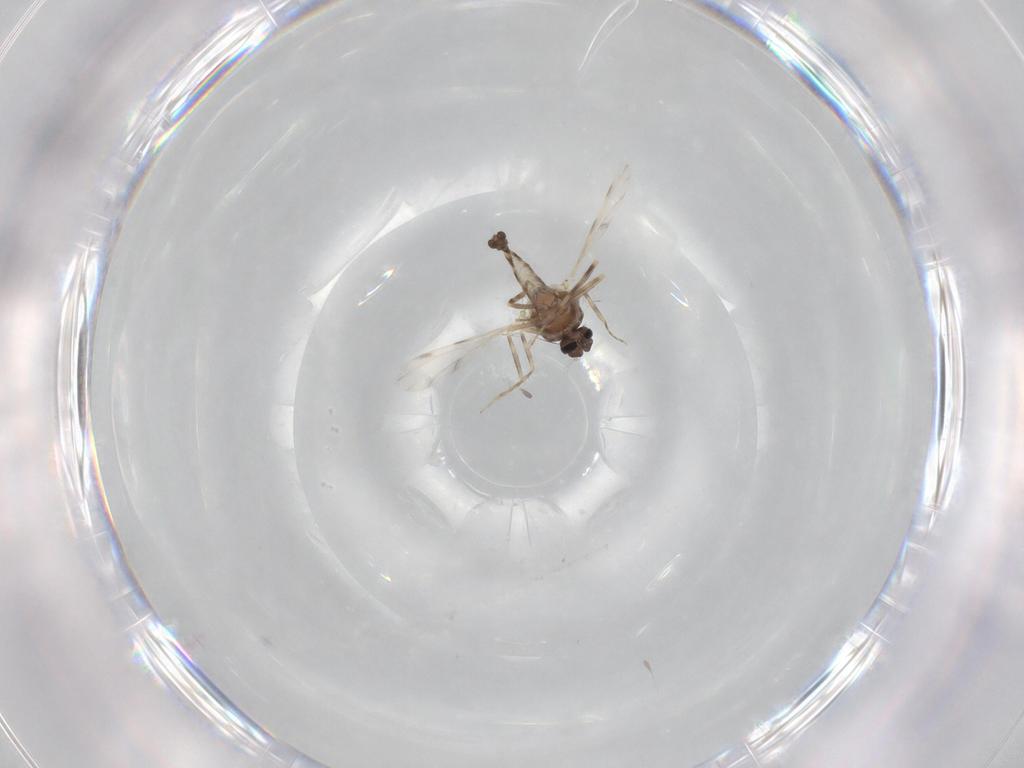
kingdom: Animalia
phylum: Arthropoda
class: Insecta
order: Diptera
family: Ceratopogonidae
